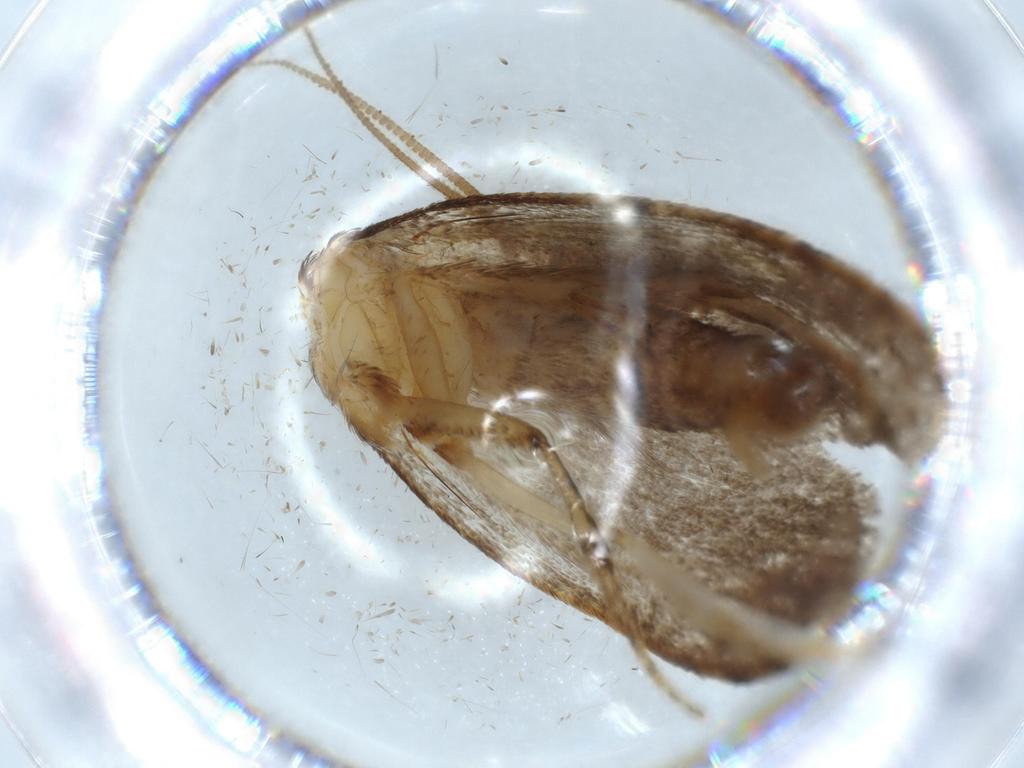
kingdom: Animalia
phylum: Arthropoda
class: Insecta
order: Lepidoptera
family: Tineidae
